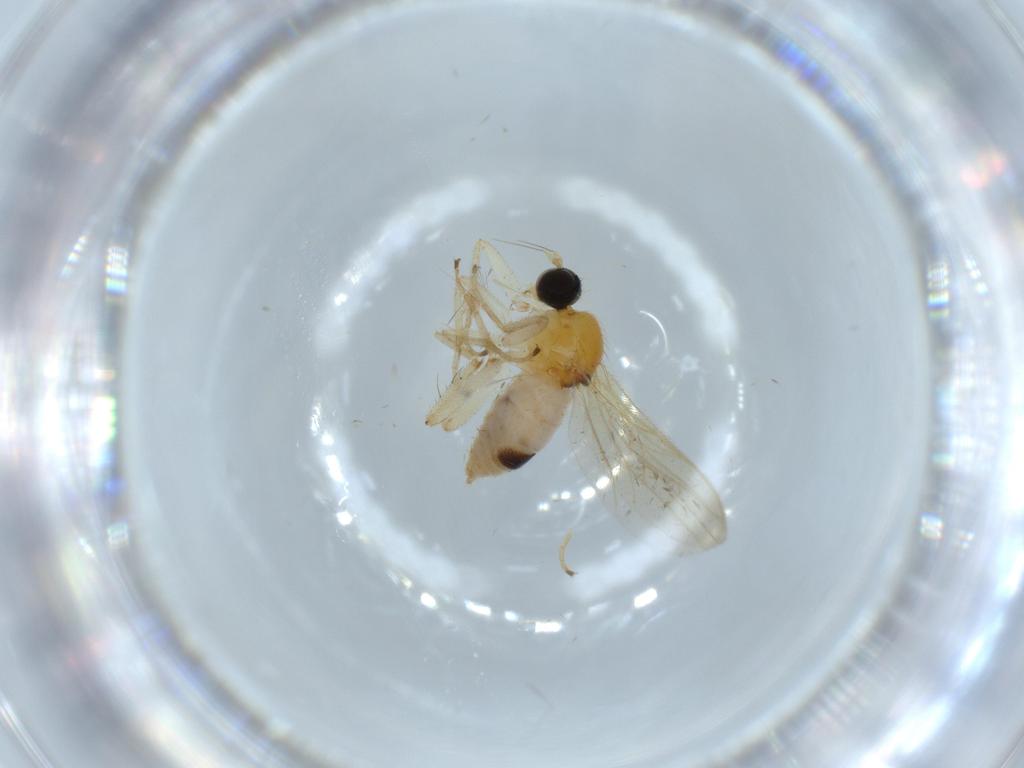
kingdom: Animalia
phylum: Arthropoda
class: Insecta
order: Diptera
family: Hybotidae
